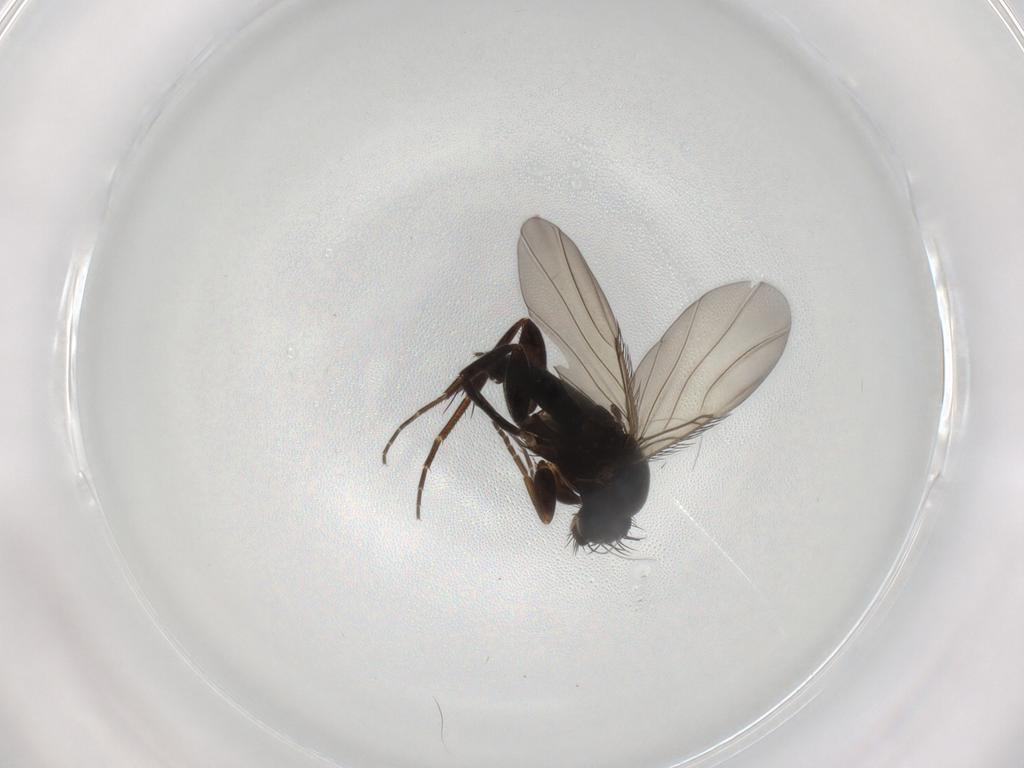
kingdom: Animalia
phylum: Arthropoda
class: Insecta
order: Diptera
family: Phoridae
